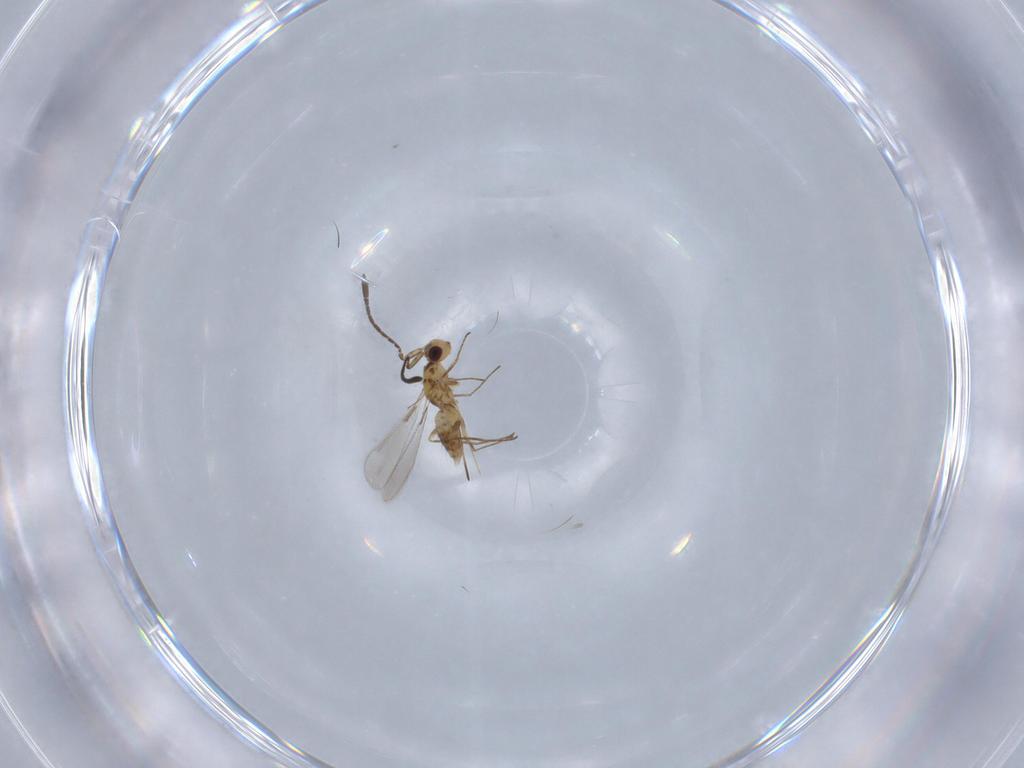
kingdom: Animalia
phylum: Arthropoda
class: Insecta
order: Hymenoptera
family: Mymaridae
